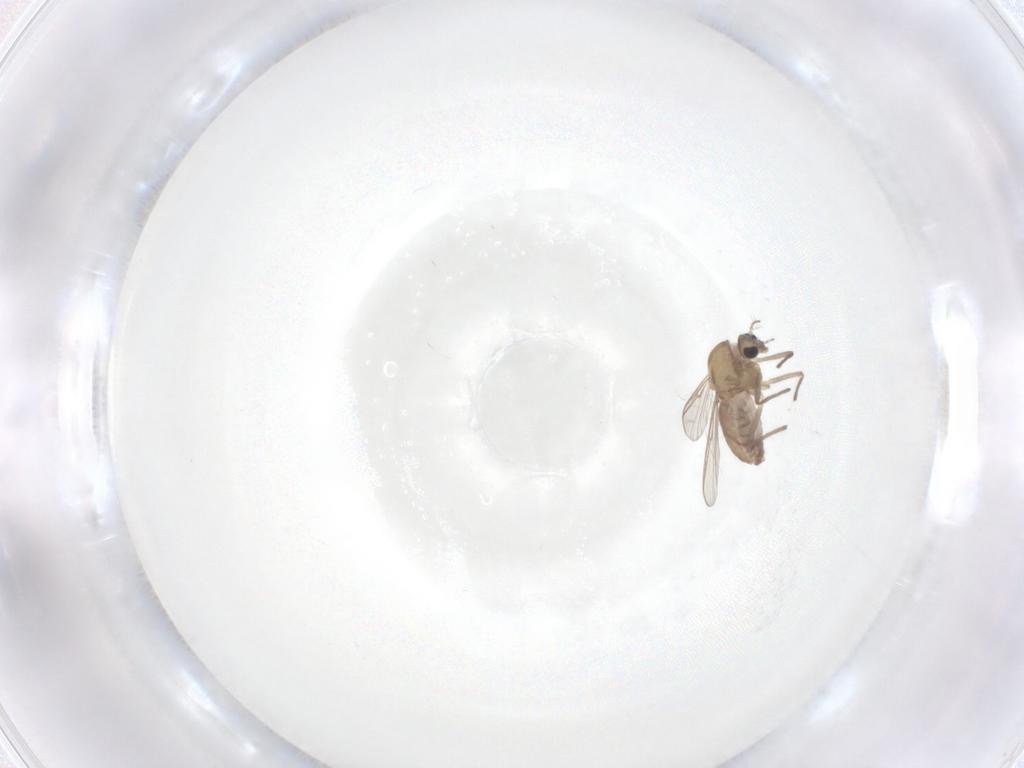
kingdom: Animalia
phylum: Arthropoda
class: Insecta
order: Diptera
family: Chironomidae
